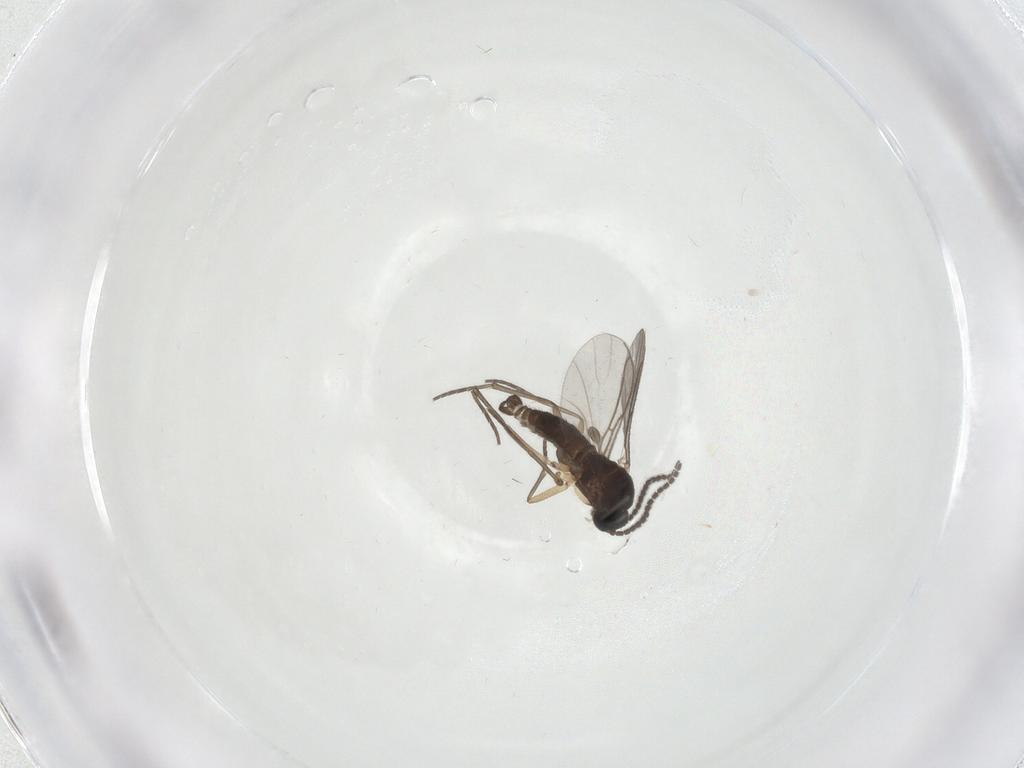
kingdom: Animalia
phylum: Arthropoda
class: Insecta
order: Diptera
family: Sciaridae
